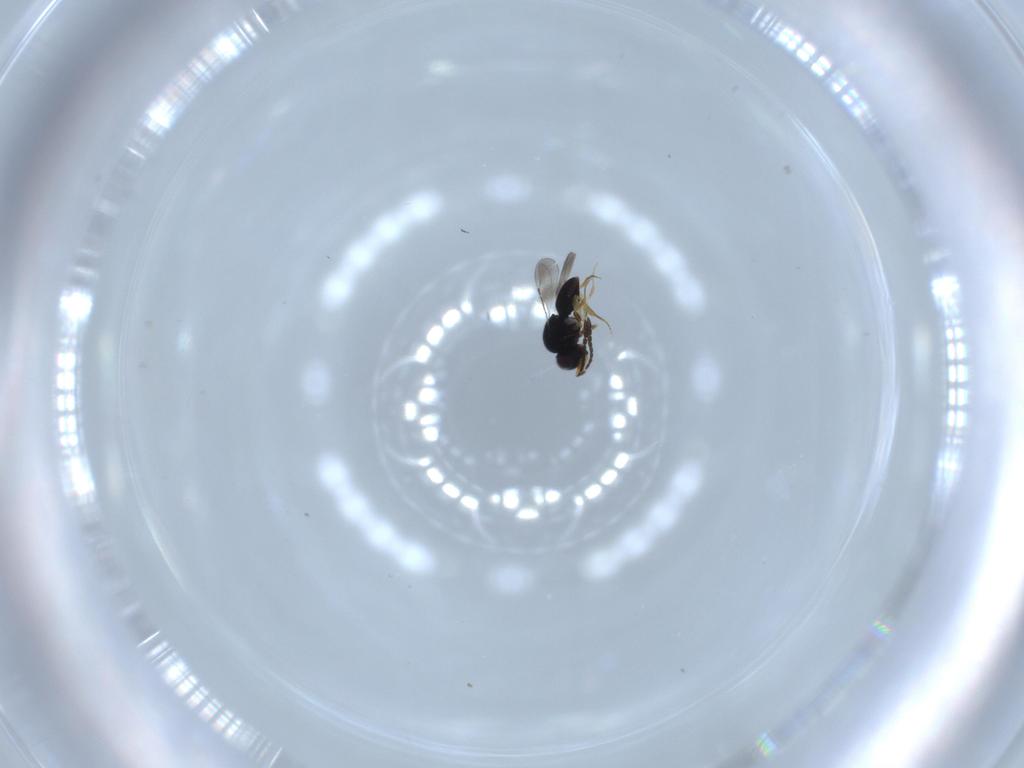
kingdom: Animalia
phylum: Arthropoda
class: Insecta
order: Hymenoptera
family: Ceraphronidae
